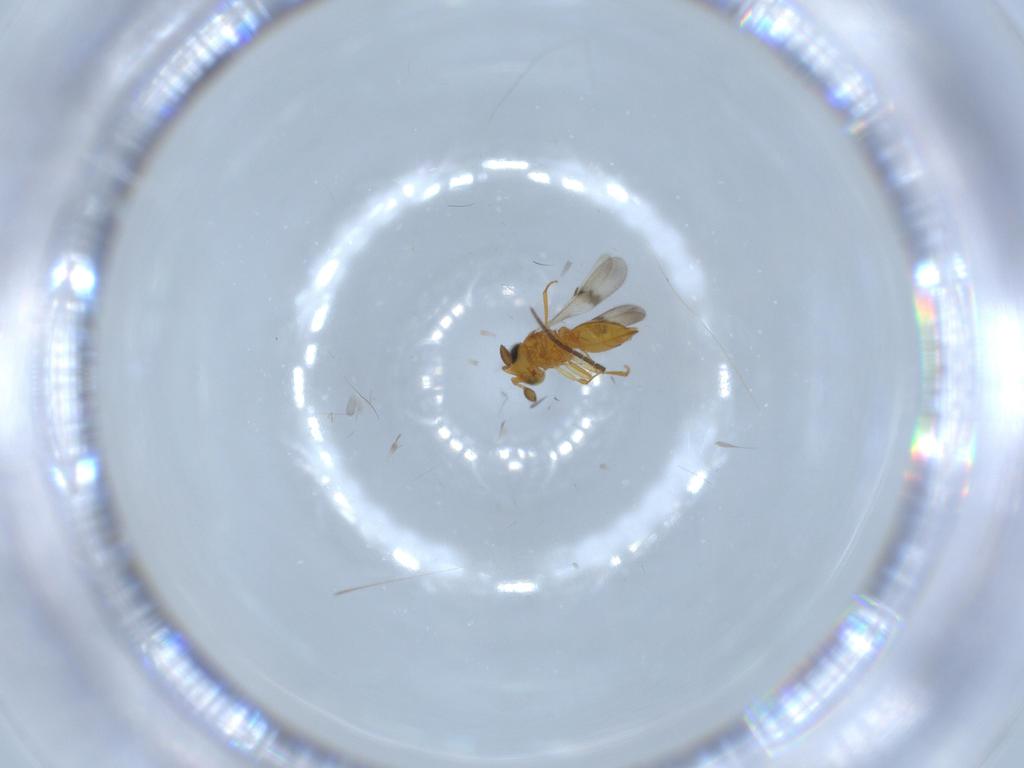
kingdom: Animalia
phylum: Arthropoda
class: Insecta
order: Hymenoptera
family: Scelionidae
